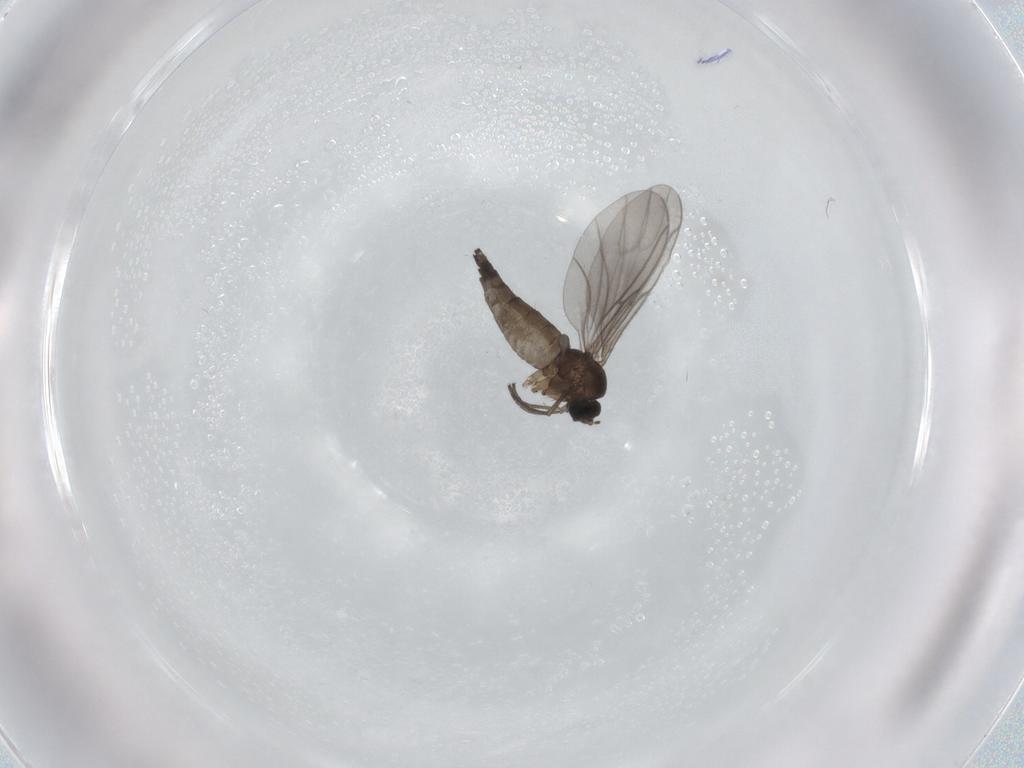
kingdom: Animalia
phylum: Arthropoda
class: Insecta
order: Diptera
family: Sciaridae
